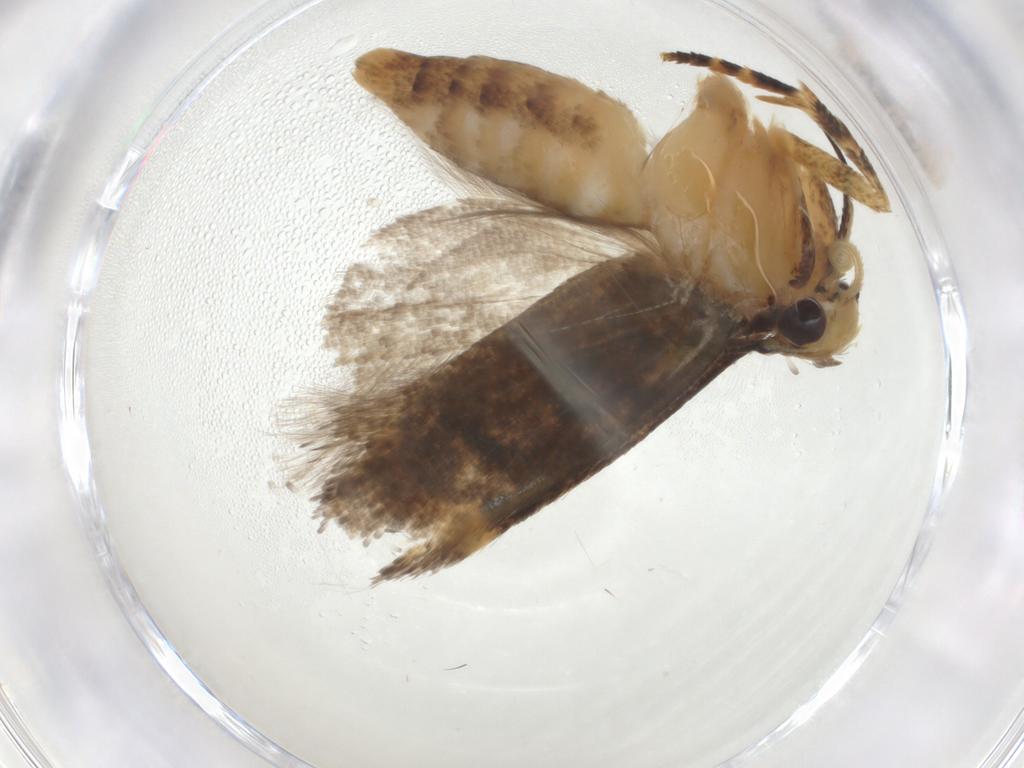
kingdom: Animalia
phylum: Arthropoda
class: Insecta
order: Lepidoptera
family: Gelechiidae
